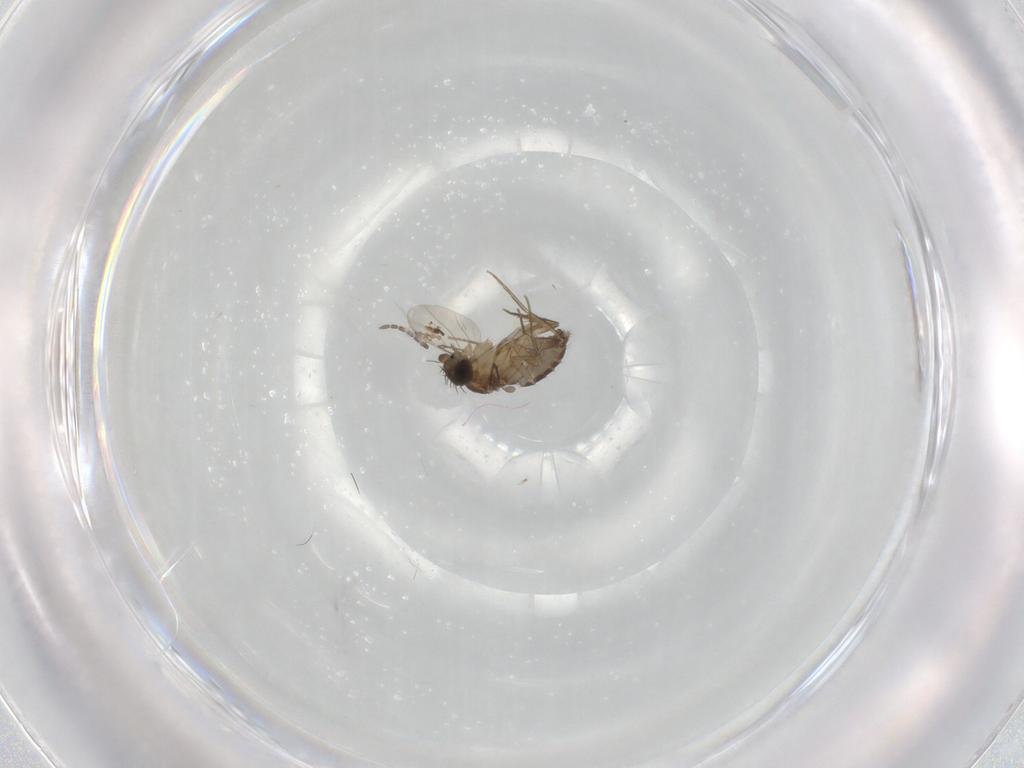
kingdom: Animalia
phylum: Arthropoda
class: Insecta
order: Diptera
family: Phoridae
